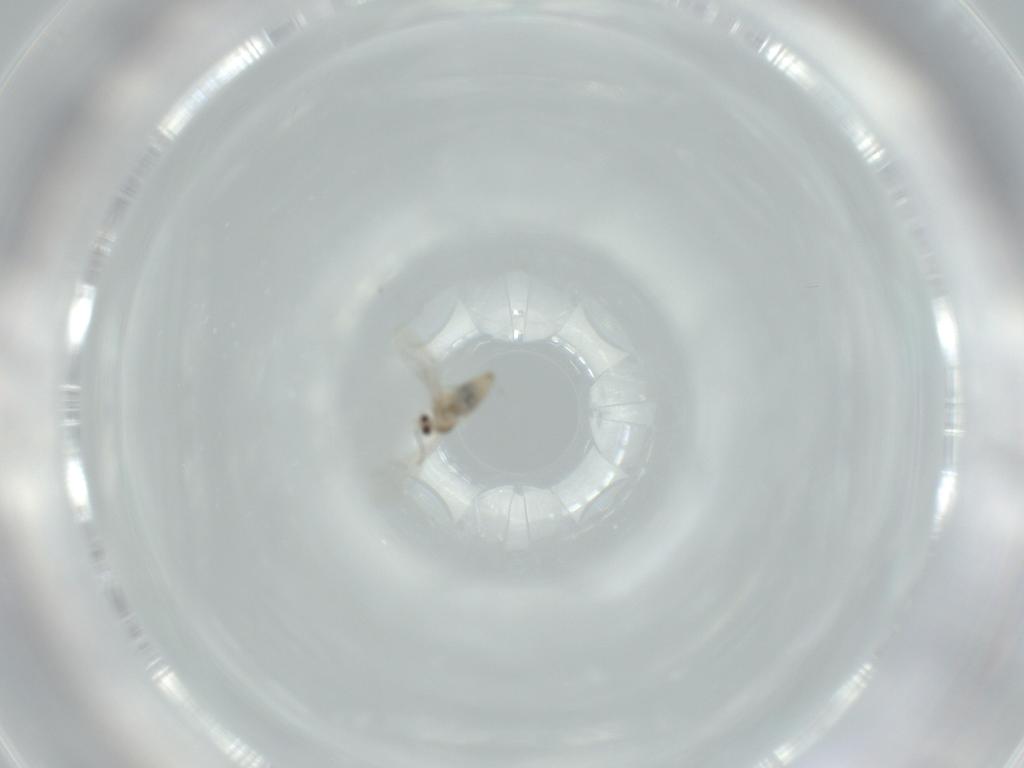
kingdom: Animalia
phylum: Arthropoda
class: Insecta
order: Diptera
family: Cecidomyiidae
